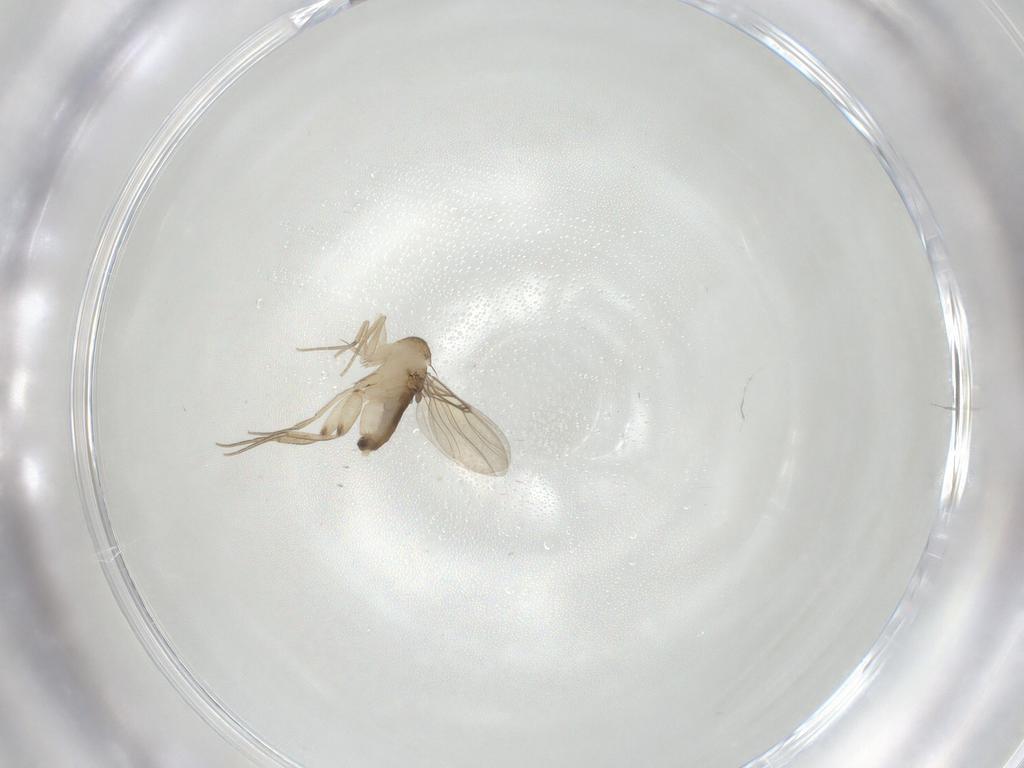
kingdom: Animalia
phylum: Arthropoda
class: Insecta
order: Diptera
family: Phoridae
